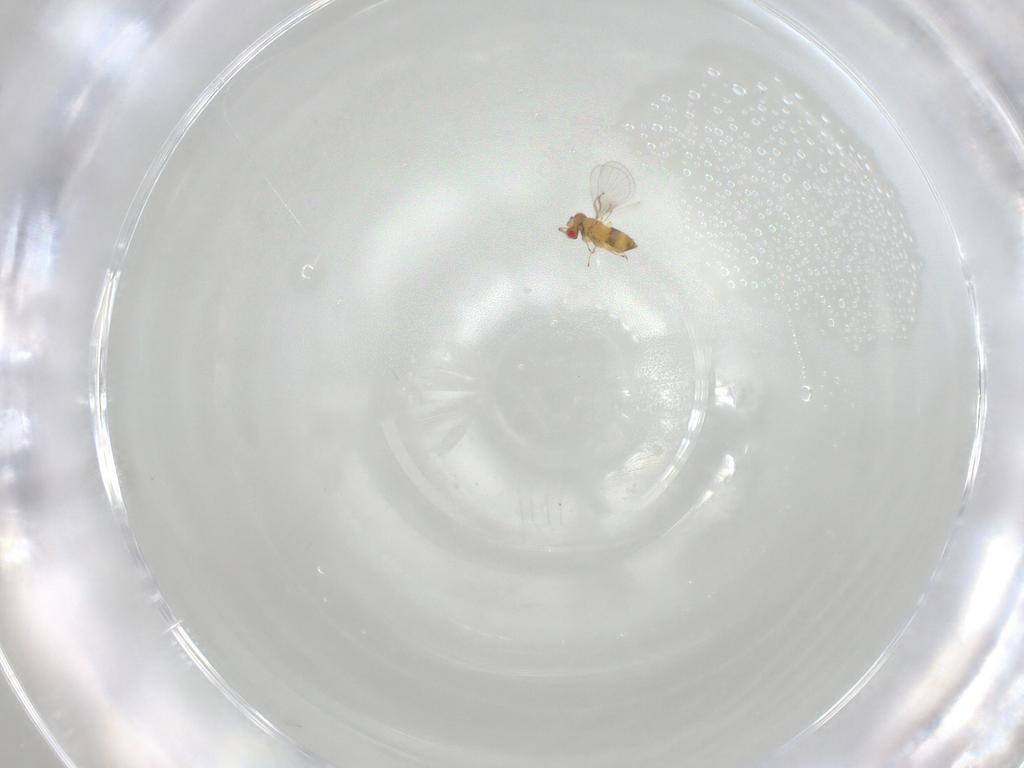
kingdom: Animalia
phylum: Arthropoda
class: Insecta
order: Hymenoptera
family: Trichogrammatidae
